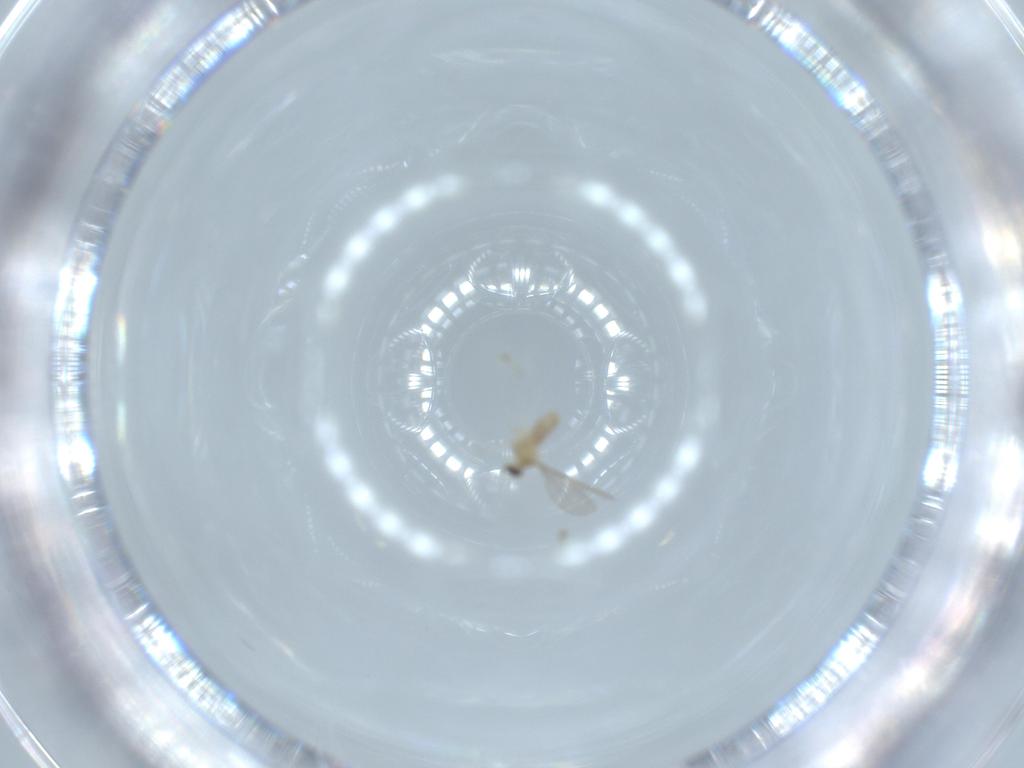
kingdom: Animalia
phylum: Arthropoda
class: Insecta
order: Diptera
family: Cecidomyiidae
